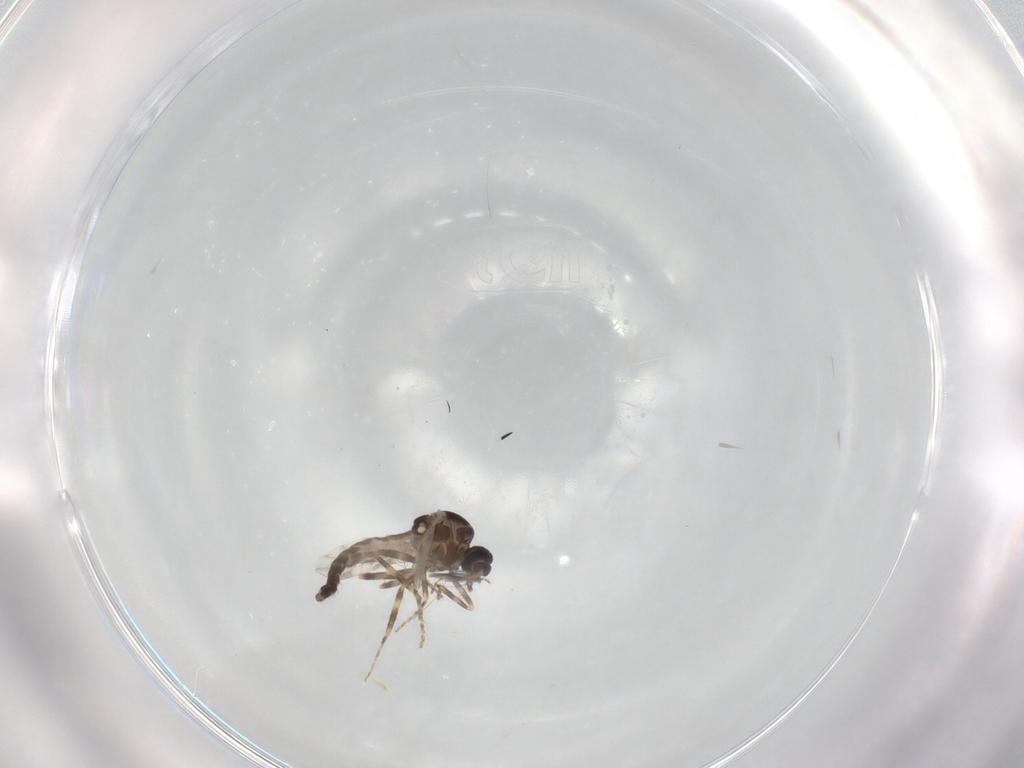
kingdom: Animalia
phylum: Arthropoda
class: Insecta
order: Diptera
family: Ceratopogonidae
